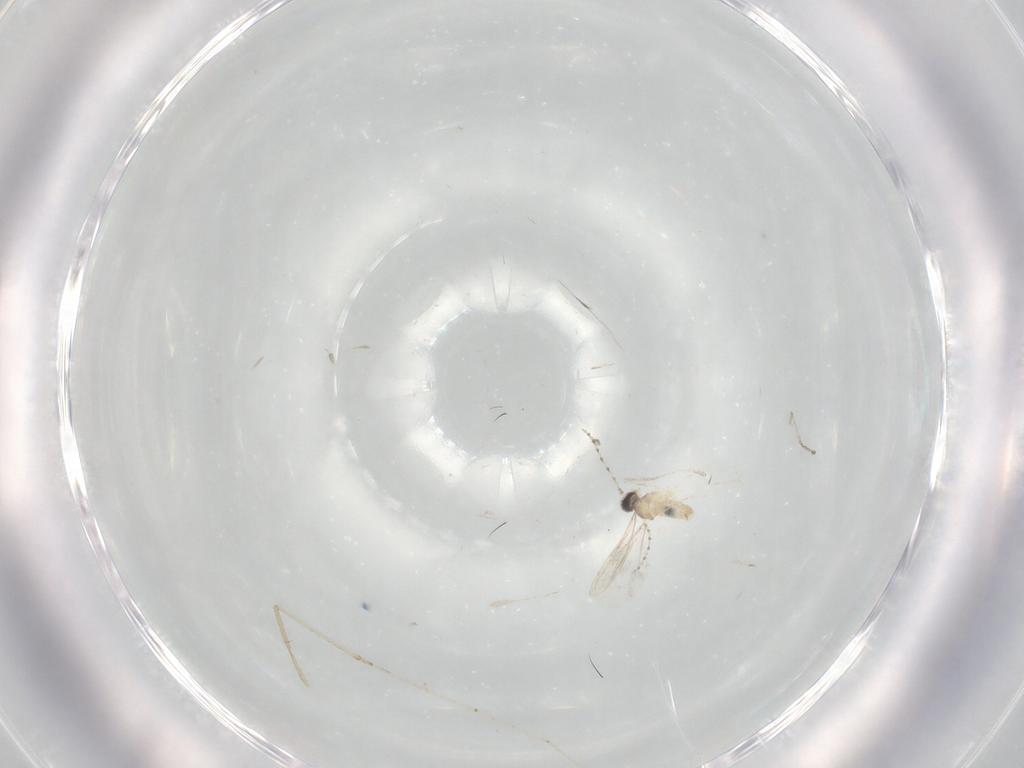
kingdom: Animalia
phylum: Arthropoda
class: Insecta
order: Diptera
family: Cecidomyiidae
